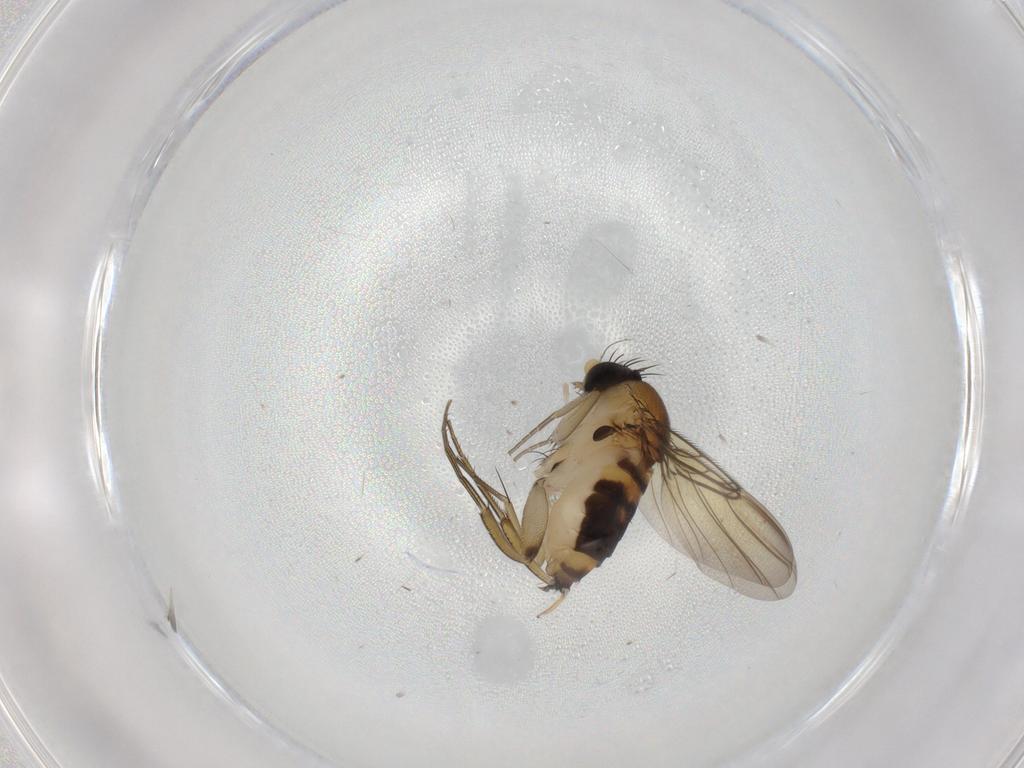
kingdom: Animalia
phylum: Arthropoda
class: Insecta
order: Diptera
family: Phoridae
